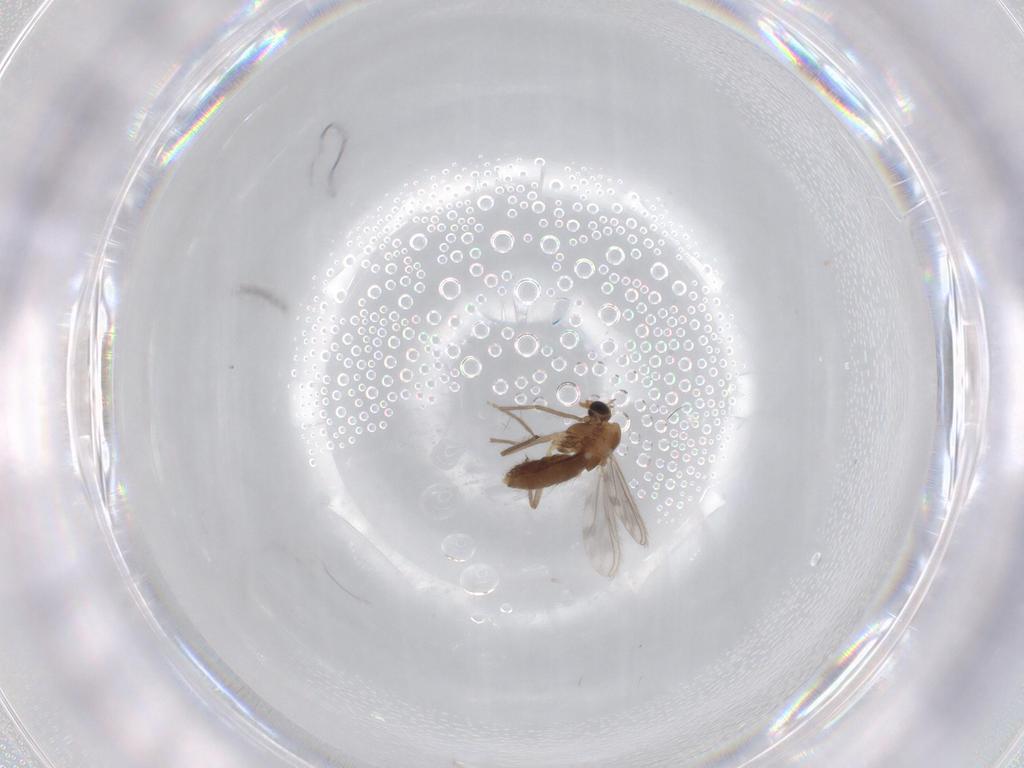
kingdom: Animalia
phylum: Arthropoda
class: Insecta
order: Diptera
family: Chironomidae
